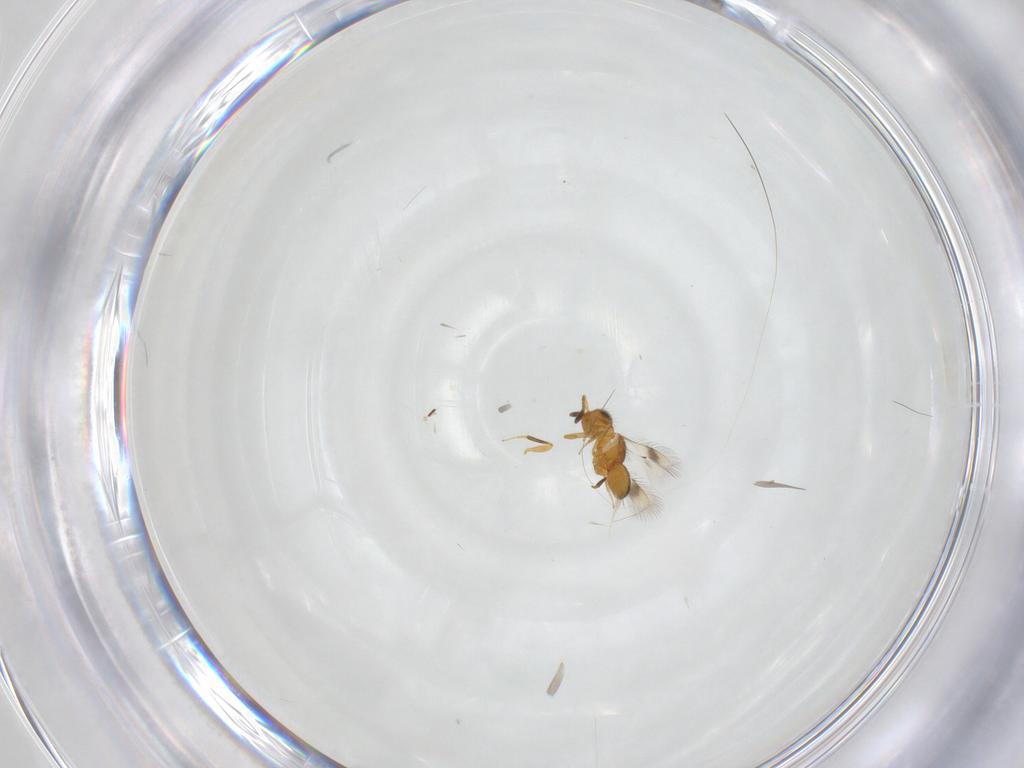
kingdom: Animalia
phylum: Arthropoda
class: Insecta
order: Hymenoptera
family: Scelionidae
